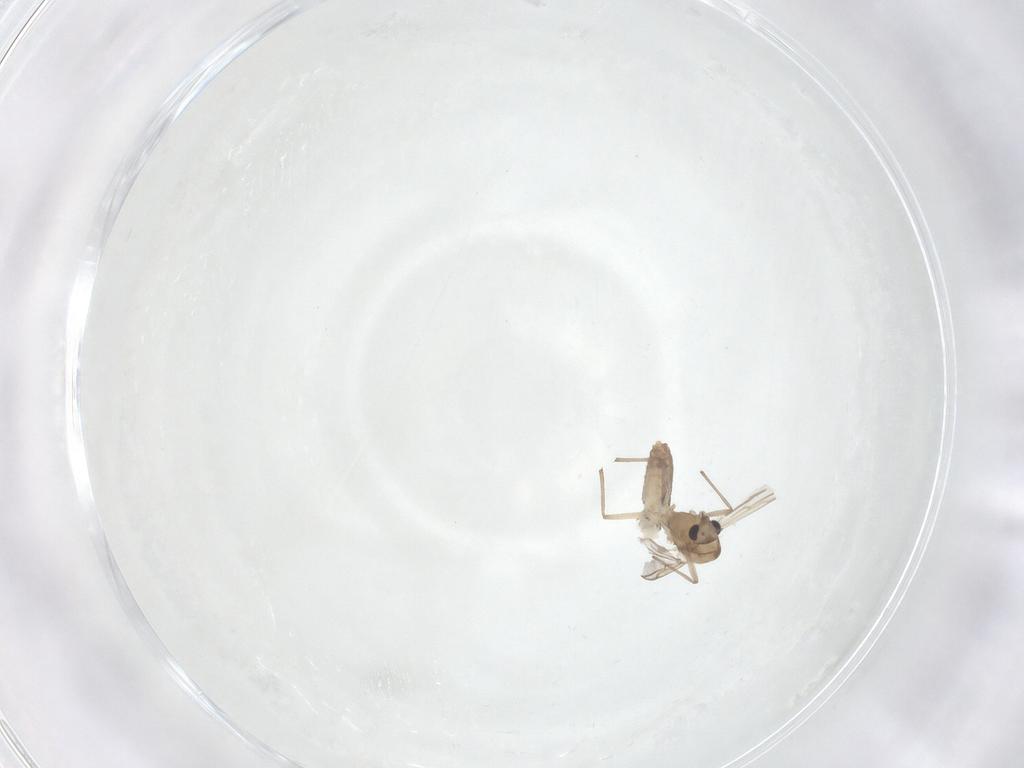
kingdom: Animalia
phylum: Arthropoda
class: Insecta
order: Diptera
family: Chironomidae
